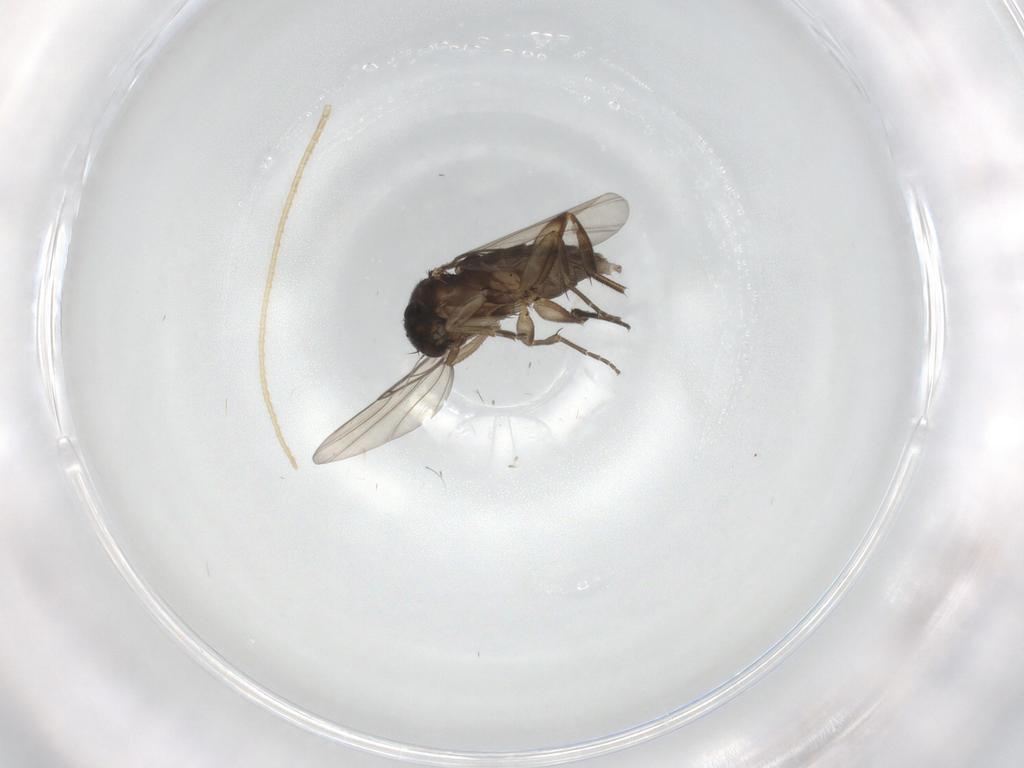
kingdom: Animalia
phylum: Arthropoda
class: Insecta
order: Diptera
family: Phoridae
